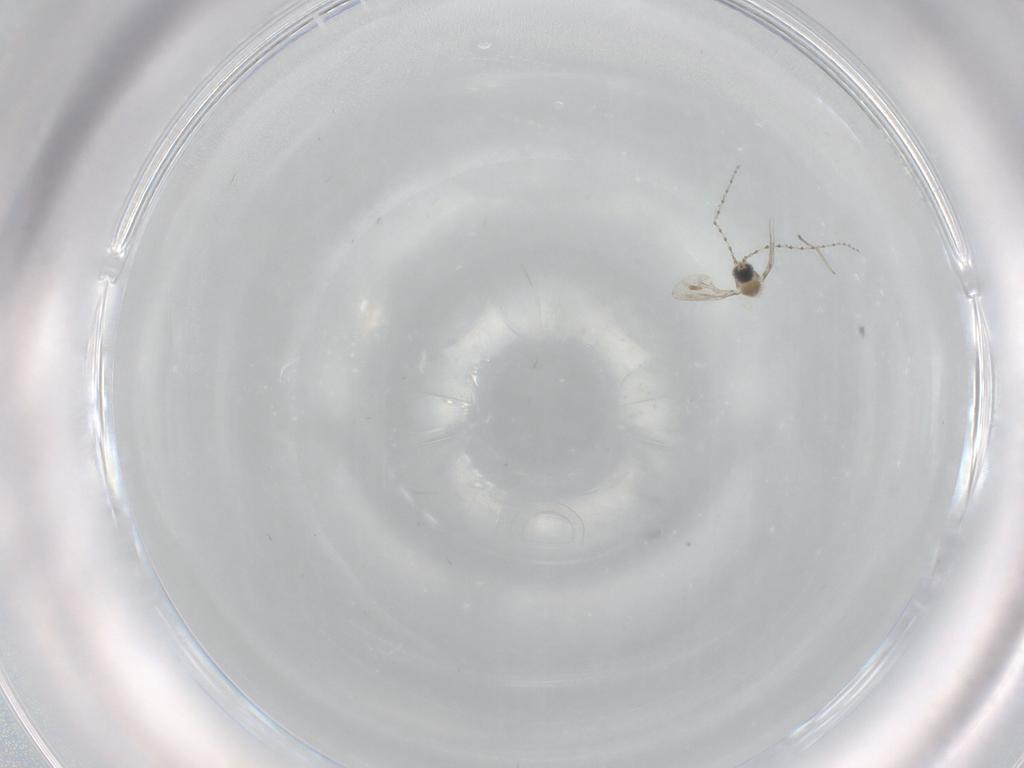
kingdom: Animalia
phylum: Arthropoda
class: Insecta
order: Diptera
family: Cecidomyiidae
